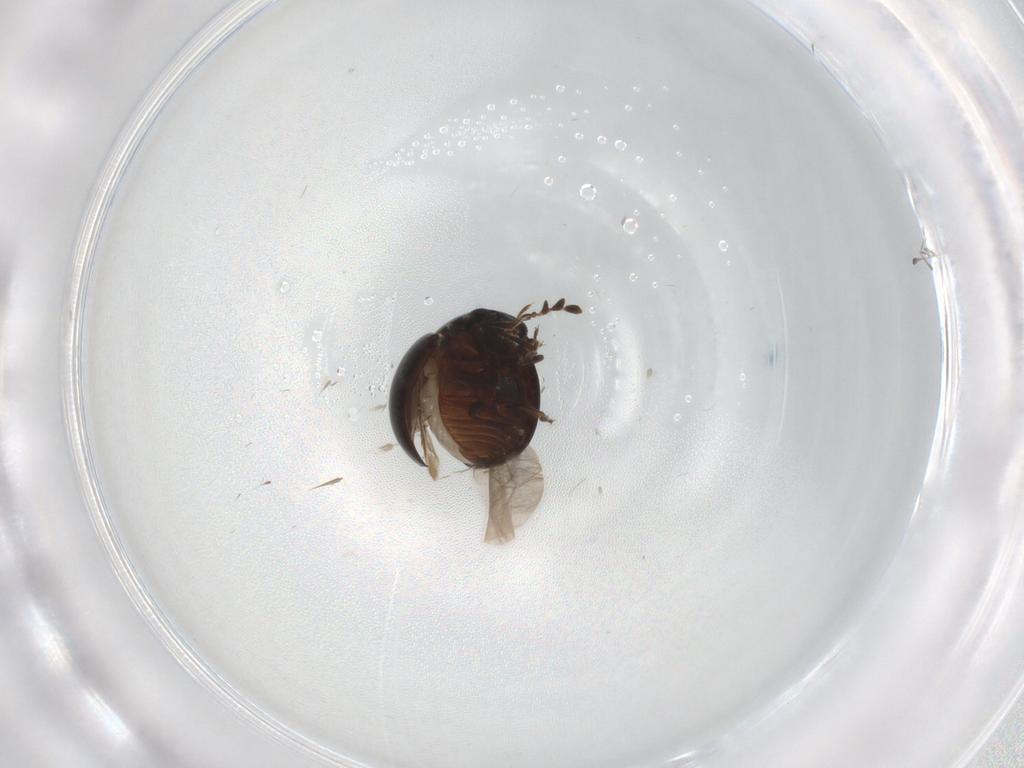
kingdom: Animalia
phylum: Arthropoda
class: Insecta
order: Coleoptera
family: Anamorphidae
